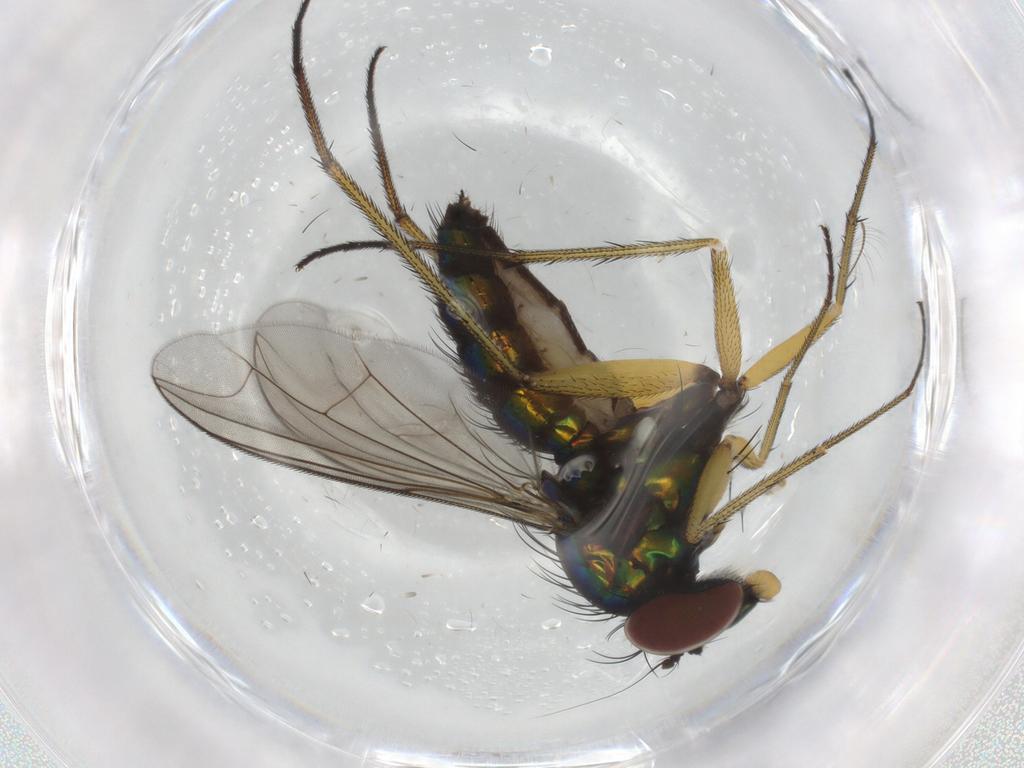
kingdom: Animalia
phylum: Arthropoda
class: Insecta
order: Diptera
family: Dolichopodidae
